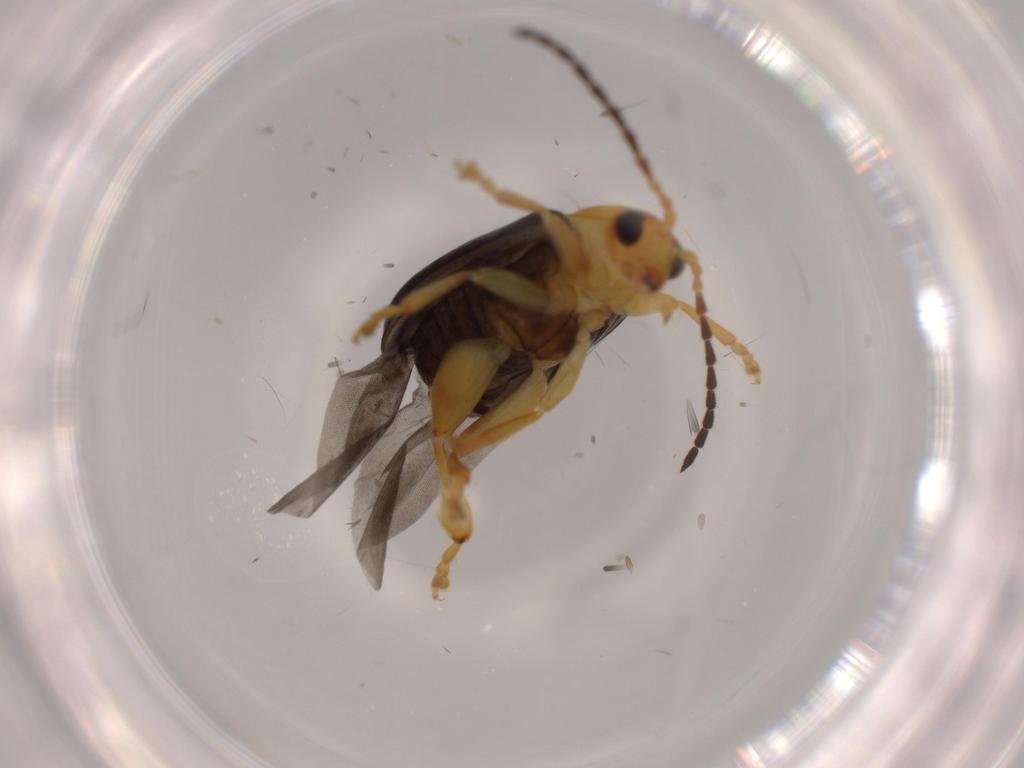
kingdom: Animalia
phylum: Arthropoda
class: Insecta
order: Coleoptera
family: Chrysomelidae
